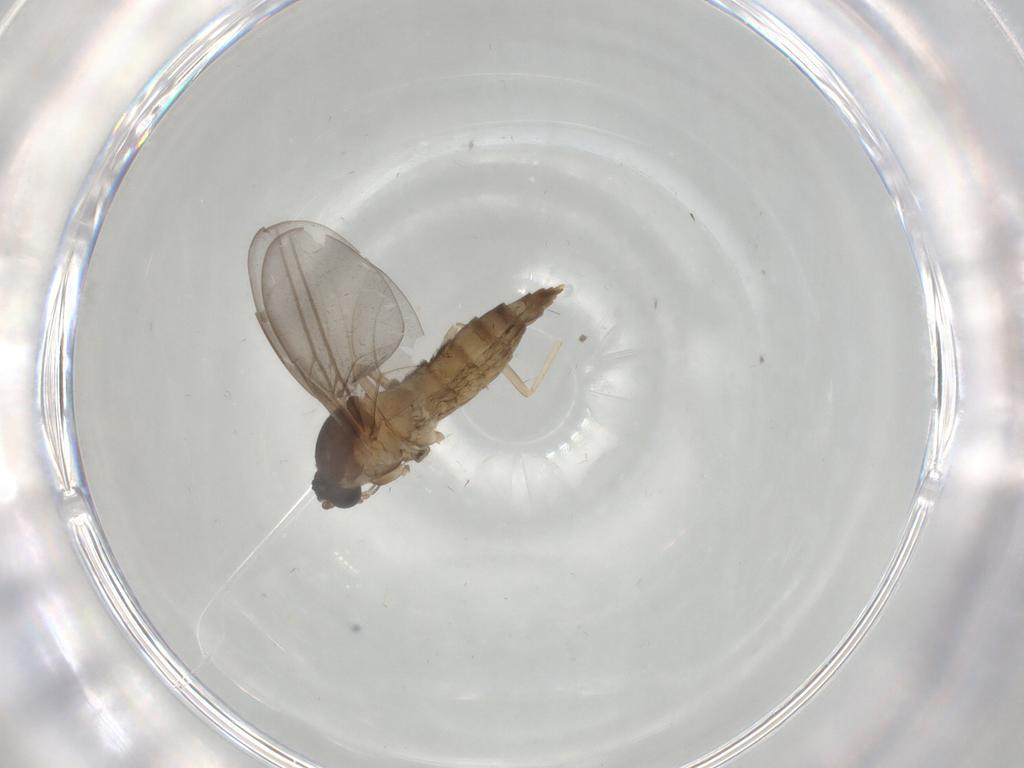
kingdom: Animalia
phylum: Arthropoda
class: Insecta
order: Diptera
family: Cecidomyiidae
